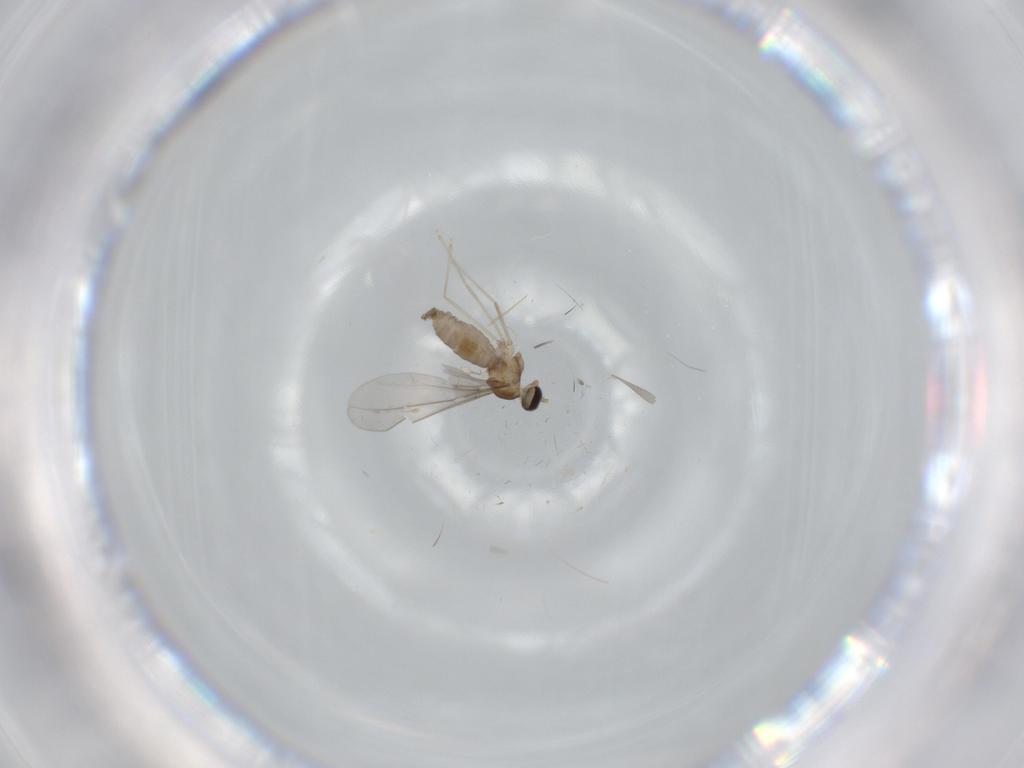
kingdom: Animalia
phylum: Arthropoda
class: Insecta
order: Diptera
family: Cecidomyiidae
